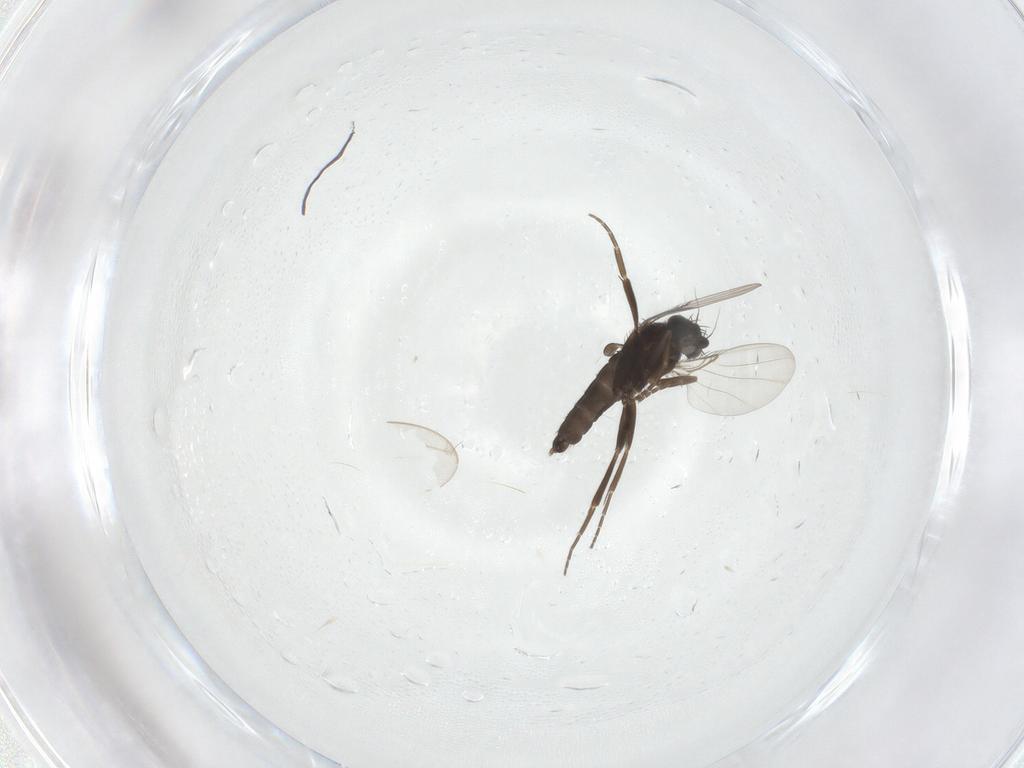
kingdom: Animalia
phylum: Arthropoda
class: Insecta
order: Diptera
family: Phoridae
